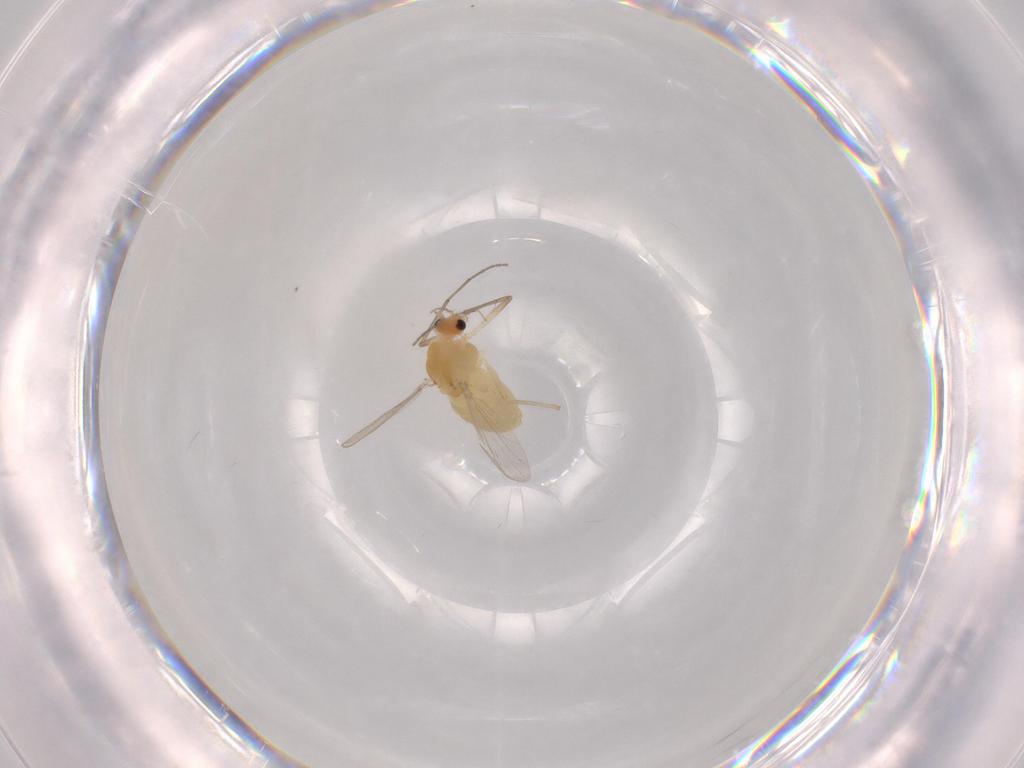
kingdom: Animalia
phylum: Arthropoda
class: Insecta
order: Diptera
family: Chironomidae
